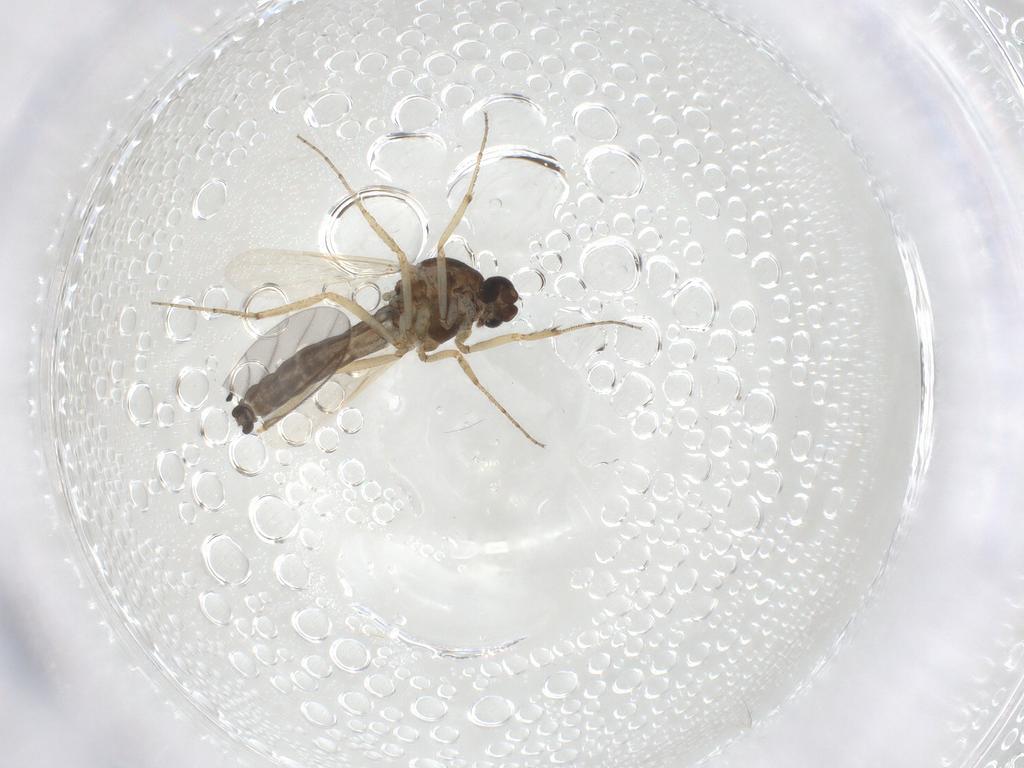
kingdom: Animalia
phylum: Arthropoda
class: Insecta
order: Diptera
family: Ceratopogonidae
